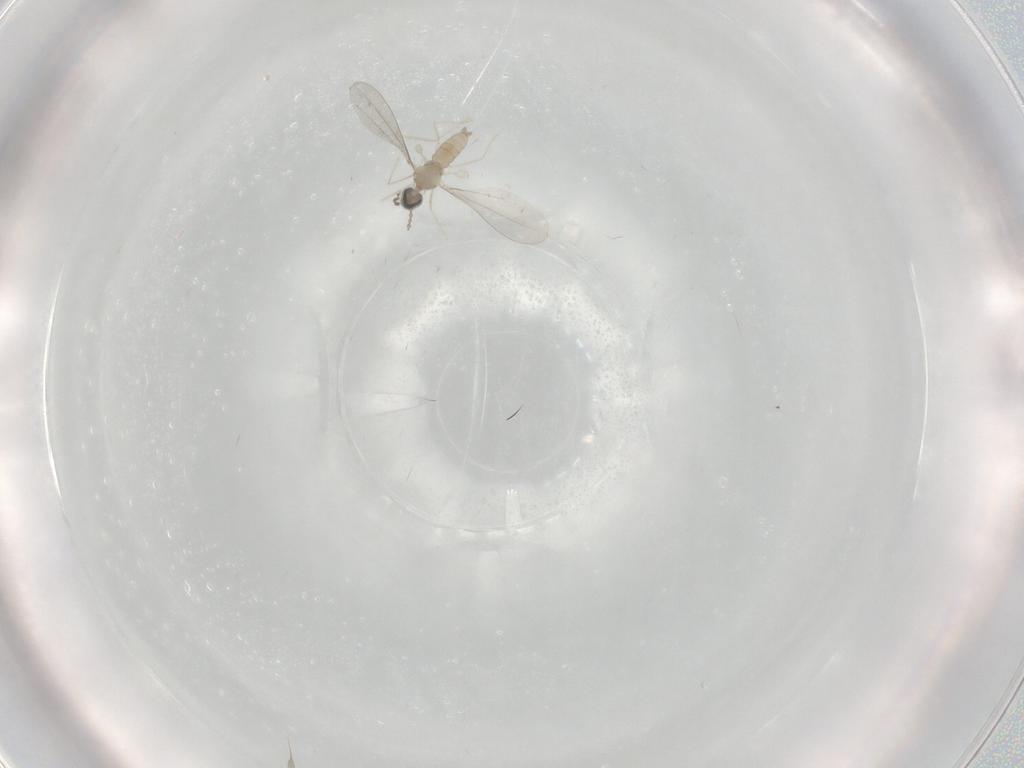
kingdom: Animalia
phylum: Arthropoda
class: Insecta
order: Diptera
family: Cecidomyiidae
